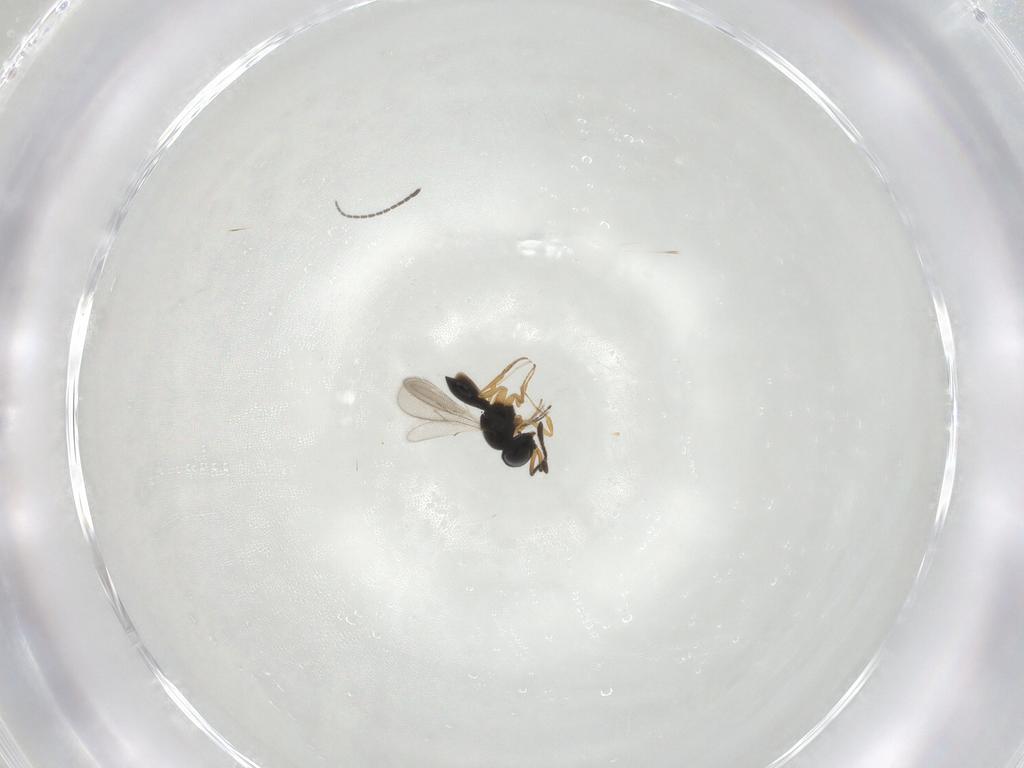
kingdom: Animalia
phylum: Arthropoda
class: Insecta
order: Hymenoptera
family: Scelionidae
